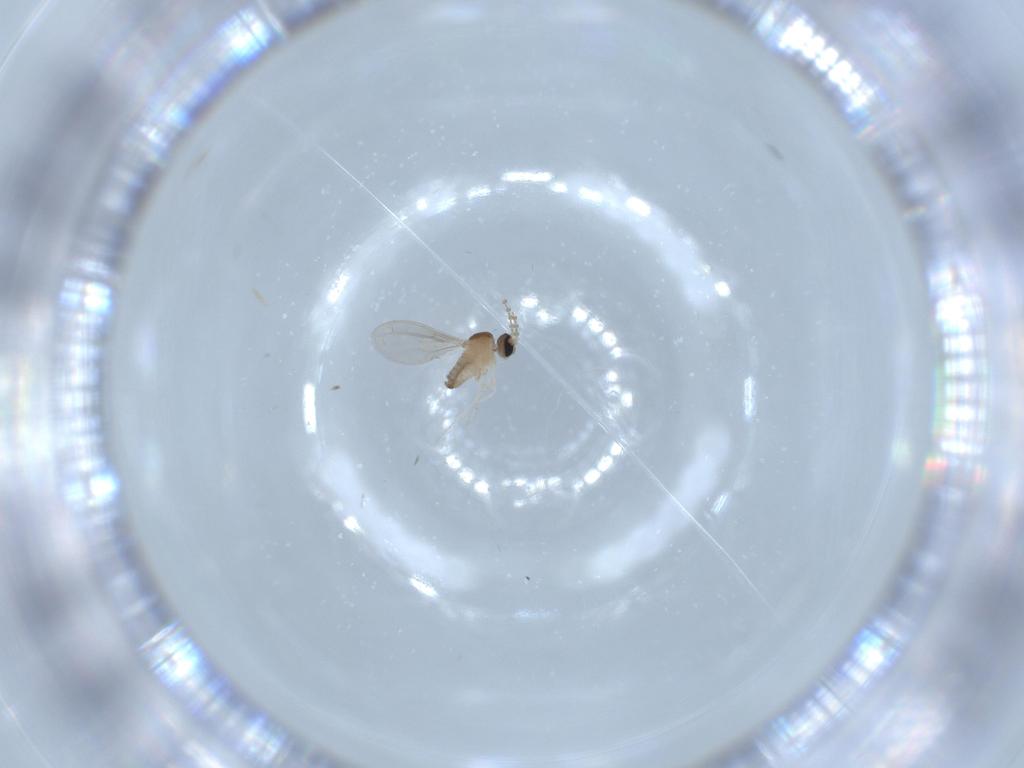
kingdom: Animalia
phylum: Arthropoda
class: Insecta
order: Diptera
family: Cecidomyiidae
